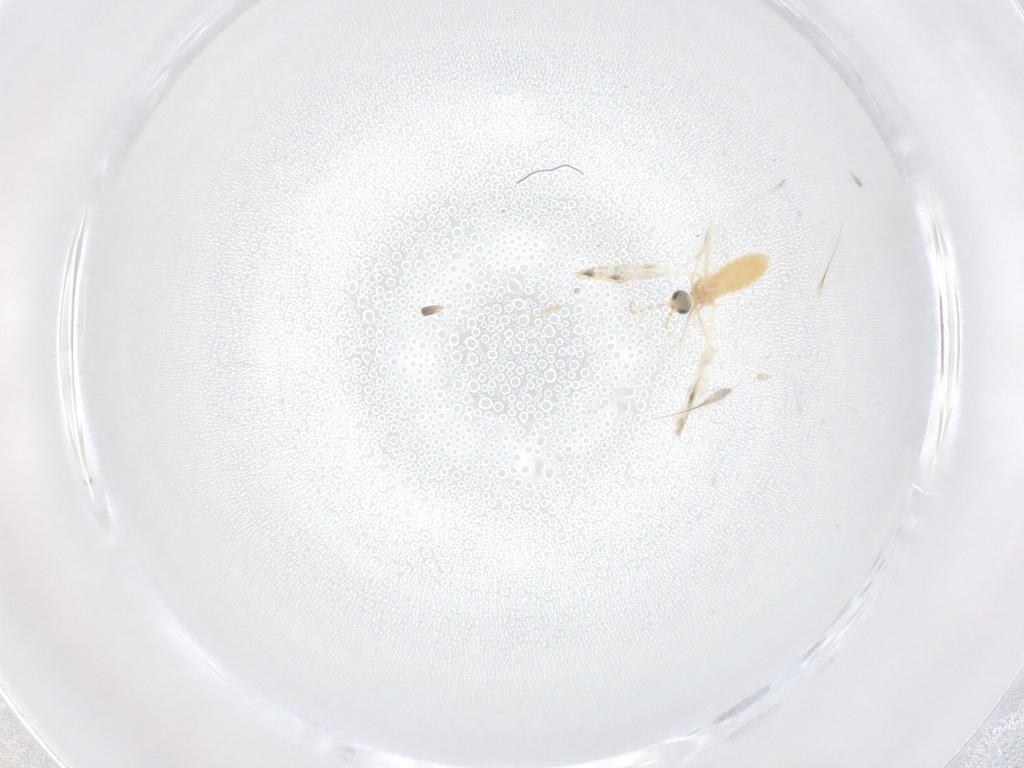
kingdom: Animalia
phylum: Arthropoda
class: Insecta
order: Diptera
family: Cecidomyiidae
